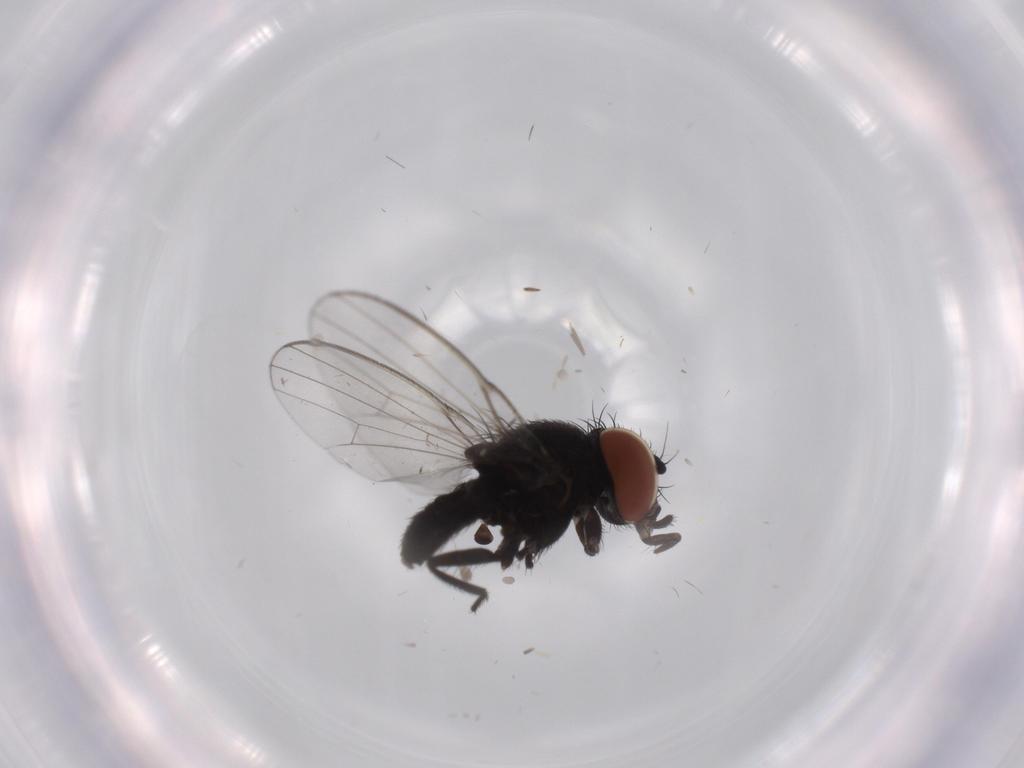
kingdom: Animalia
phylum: Arthropoda
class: Insecta
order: Diptera
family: Milichiidae
